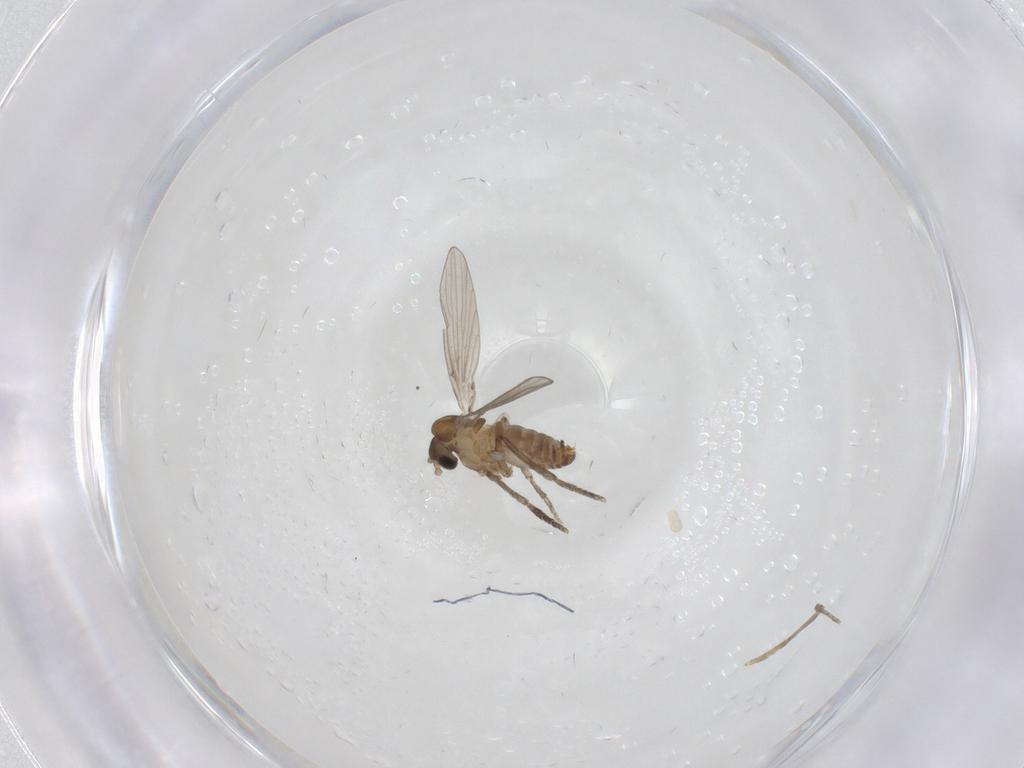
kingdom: Animalia
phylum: Arthropoda
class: Insecta
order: Diptera
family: Psychodidae
